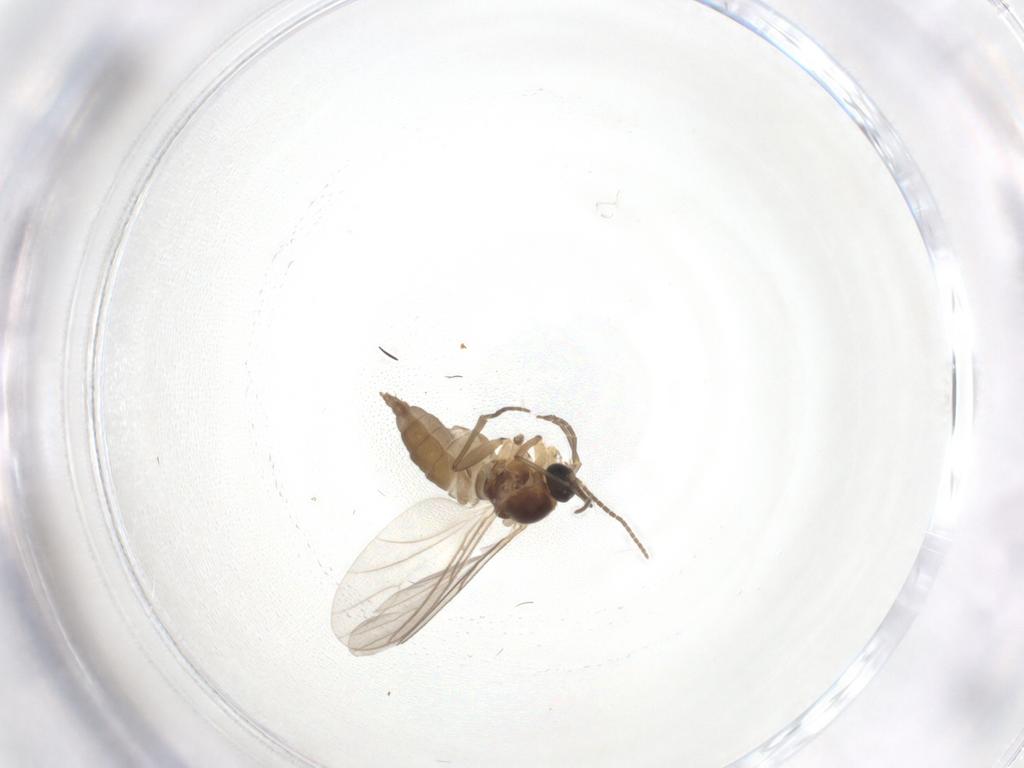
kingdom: Animalia
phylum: Arthropoda
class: Insecta
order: Diptera
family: Sciaridae
